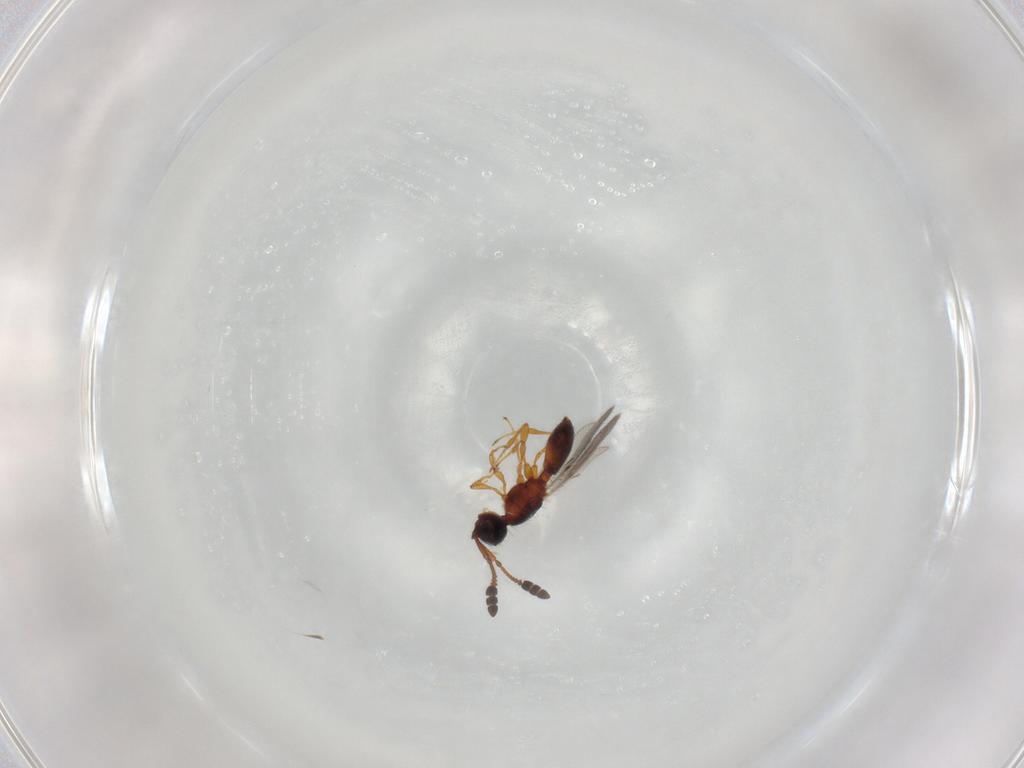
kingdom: Animalia
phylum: Arthropoda
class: Insecta
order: Hymenoptera
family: Diapriidae
